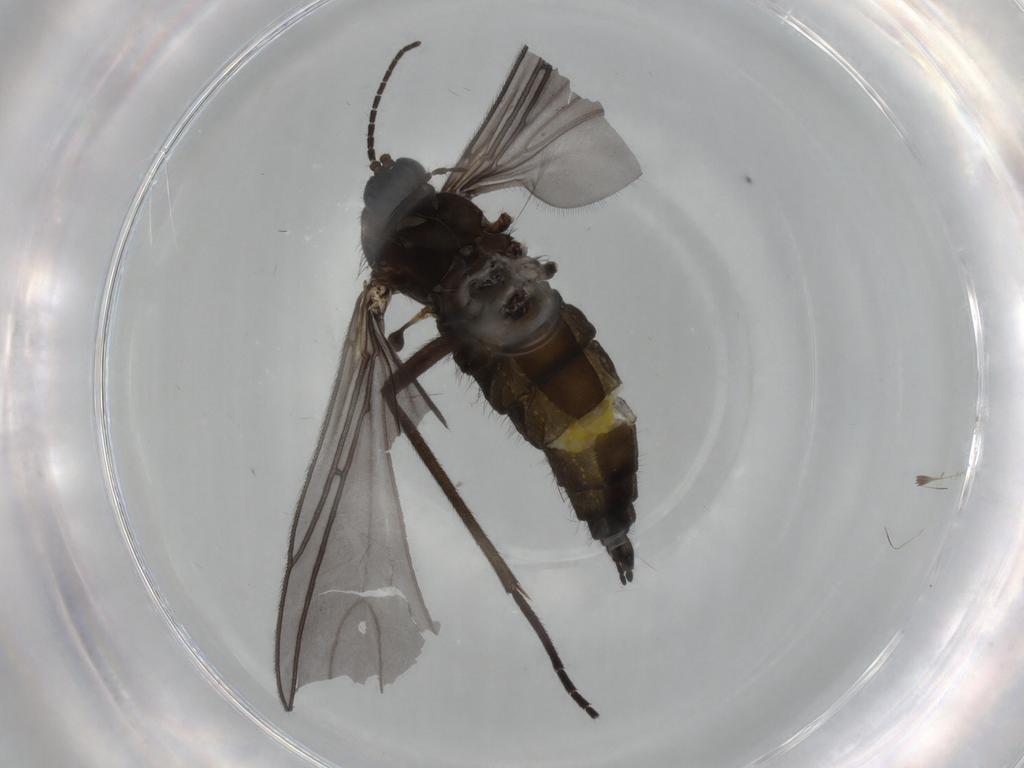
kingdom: Animalia
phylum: Arthropoda
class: Insecta
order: Diptera
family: Sciaridae
